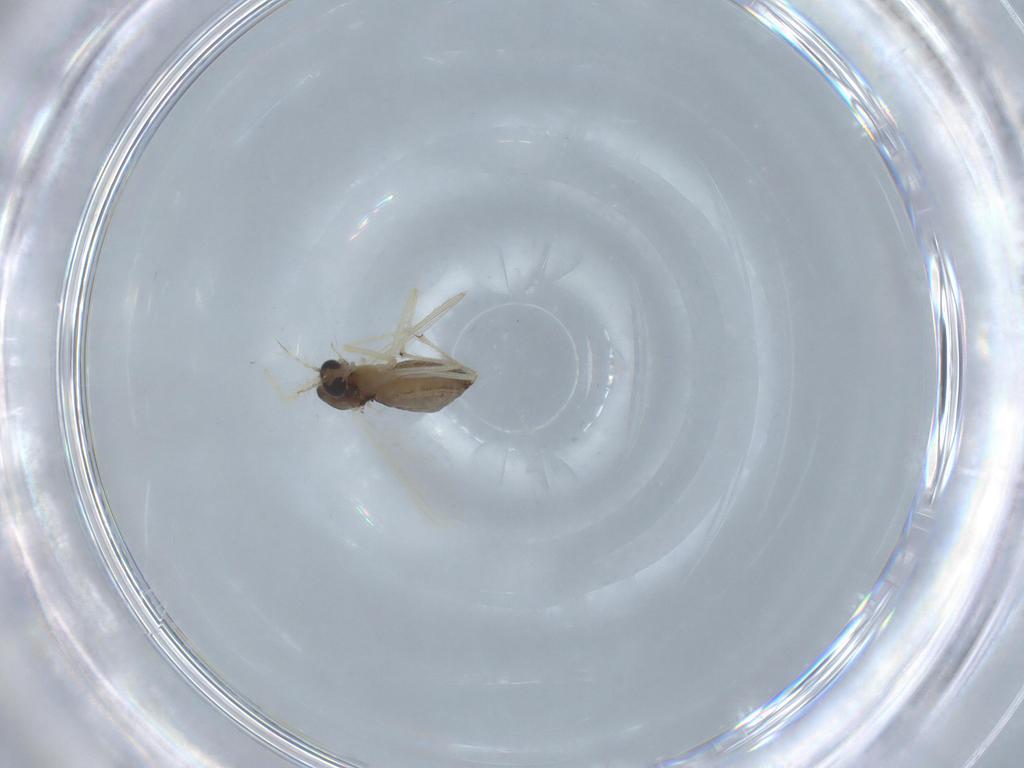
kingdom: Animalia
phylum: Arthropoda
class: Insecta
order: Diptera
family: Dolichopodidae
